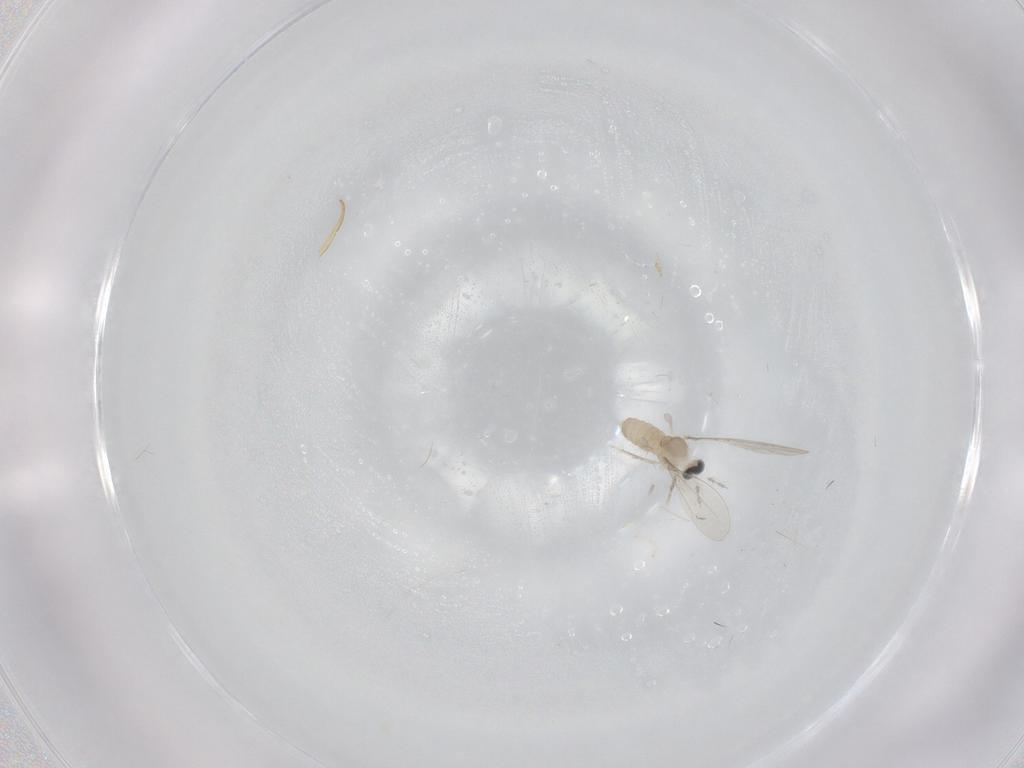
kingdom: Animalia
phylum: Arthropoda
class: Insecta
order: Diptera
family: Cecidomyiidae
